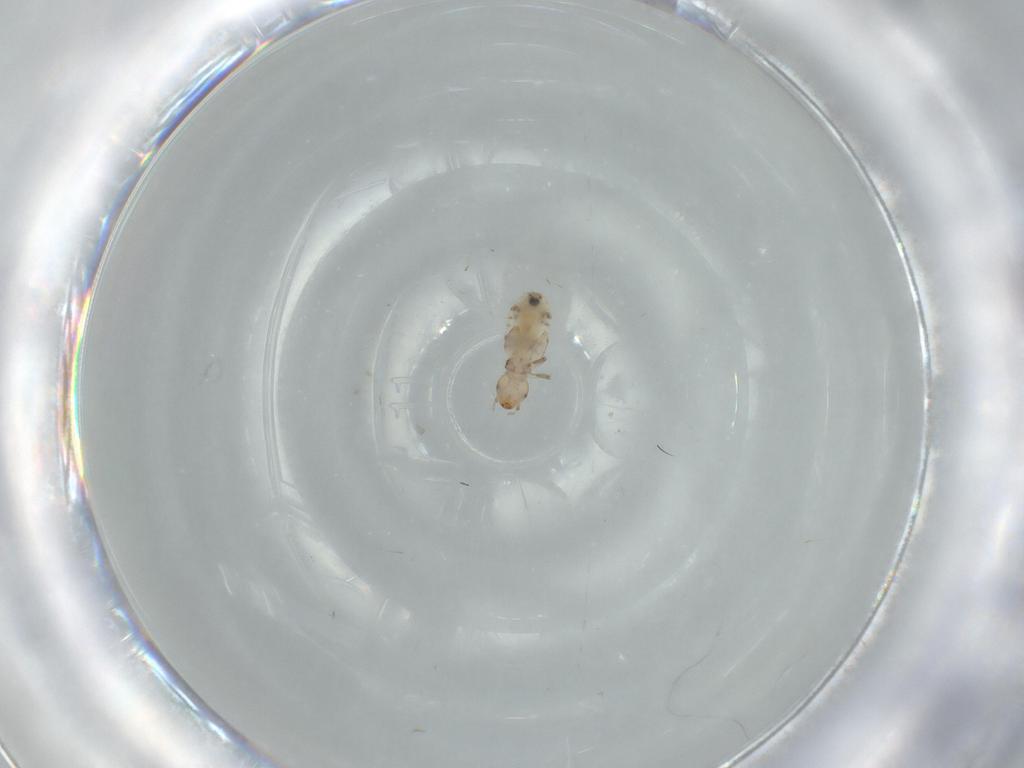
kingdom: Animalia
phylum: Arthropoda
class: Insecta
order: Psocodea
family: Liposcelididae
